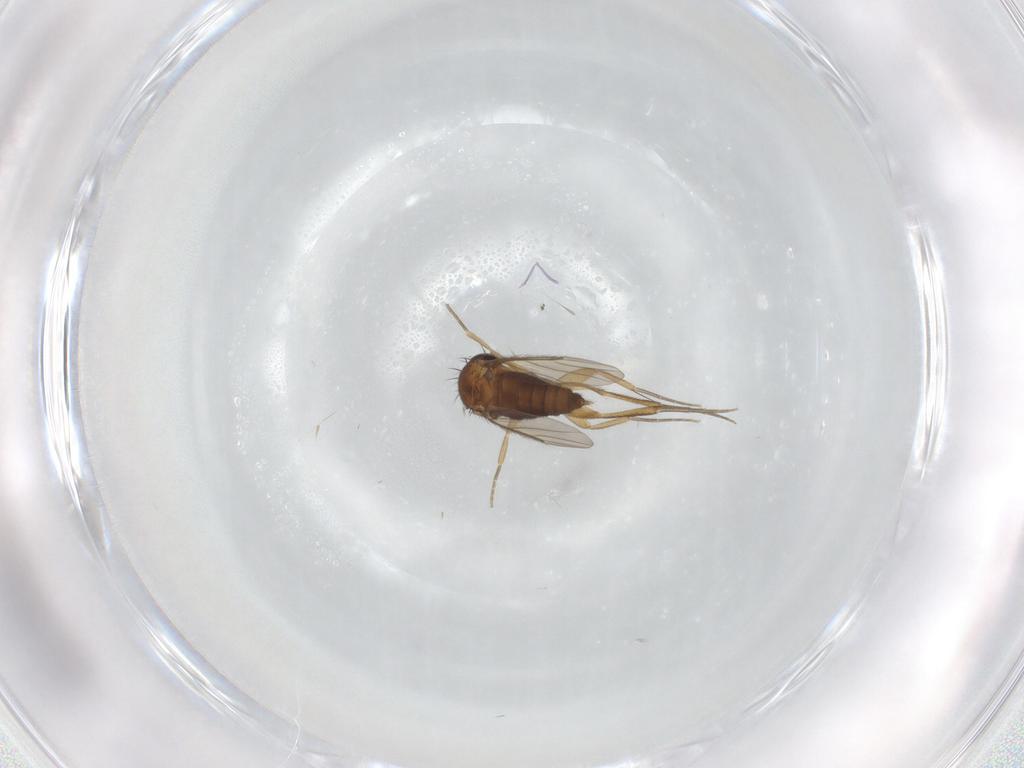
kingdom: Animalia
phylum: Arthropoda
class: Insecta
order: Diptera
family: Phoridae
